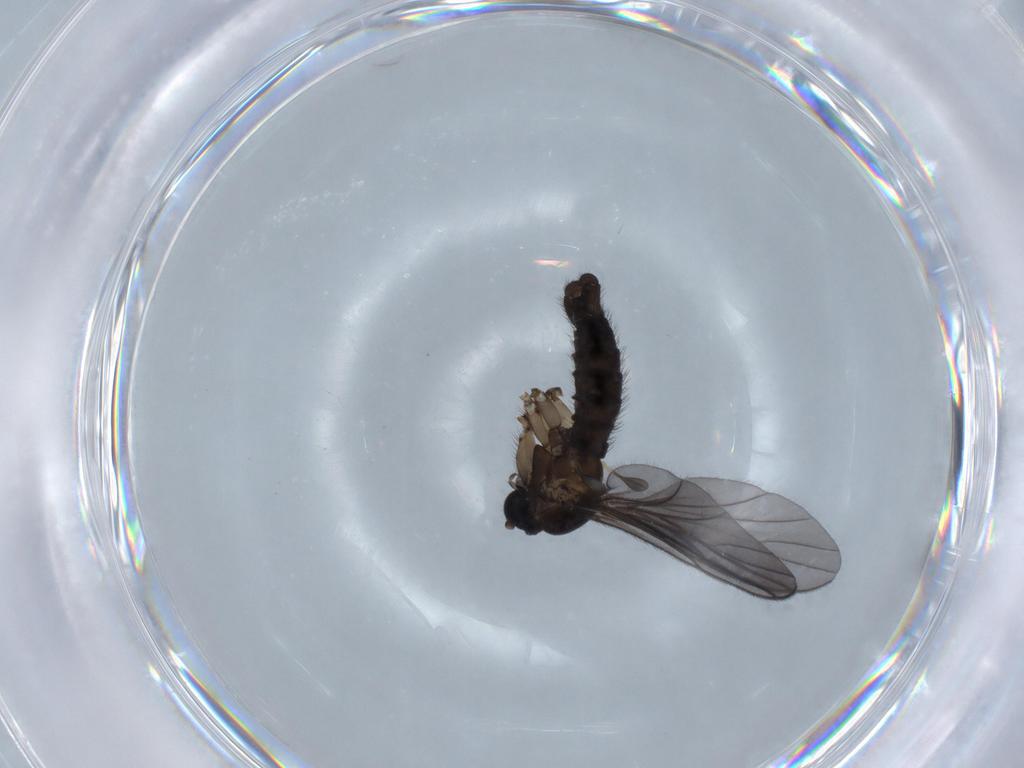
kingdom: Animalia
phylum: Arthropoda
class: Insecta
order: Diptera
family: Sciaridae
